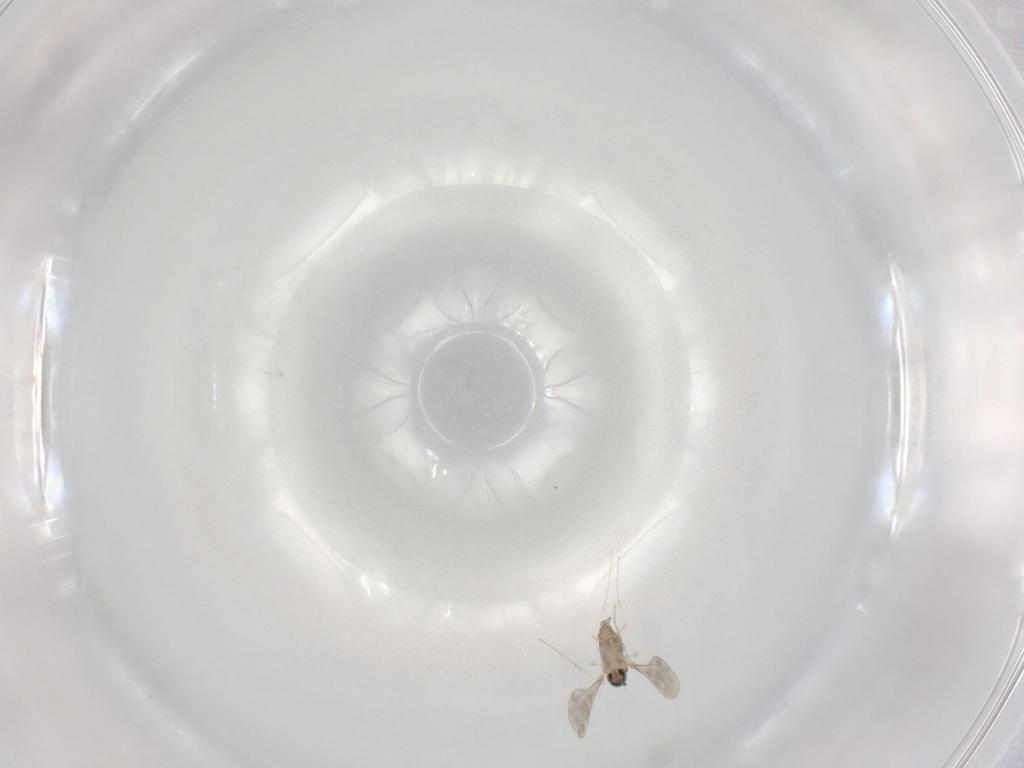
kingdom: Animalia
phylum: Arthropoda
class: Insecta
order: Diptera
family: Cecidomyiidae
